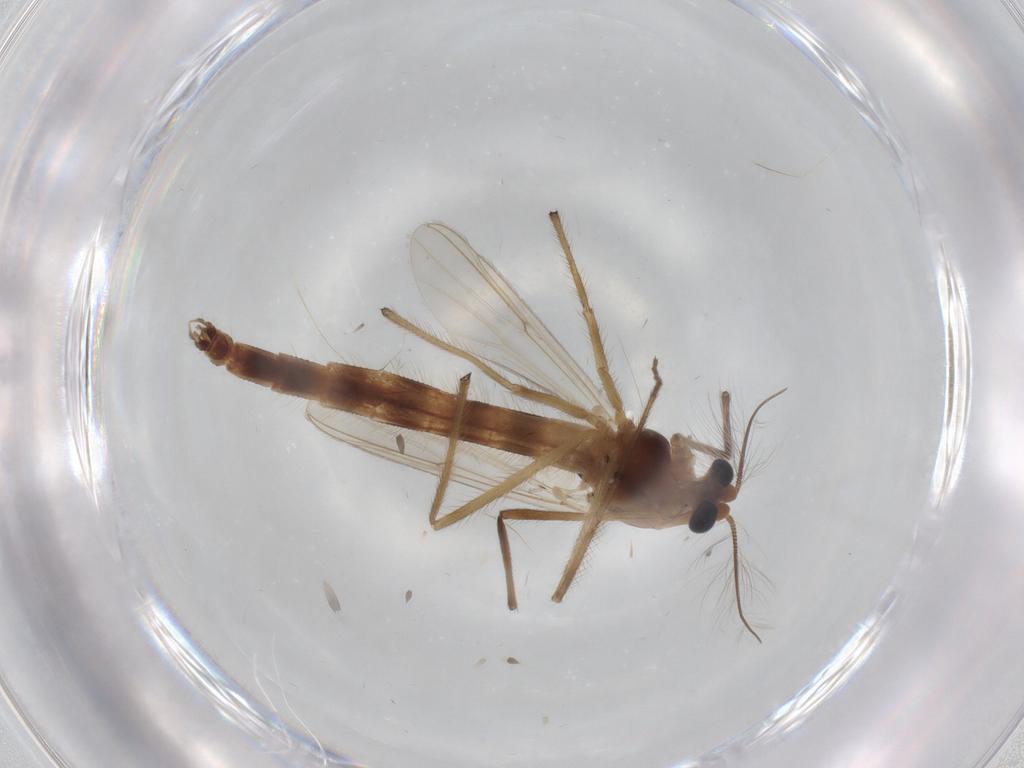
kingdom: Animalia
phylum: Arthropoda
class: Insecta
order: Diptera
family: Chironomidae
